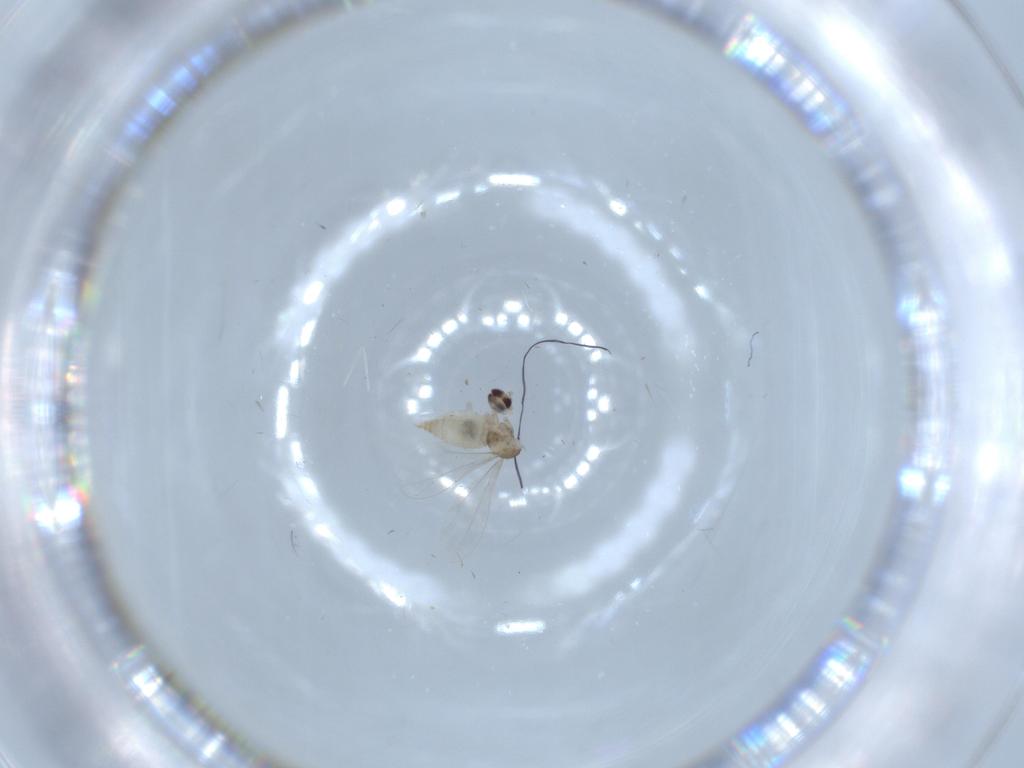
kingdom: Animalia
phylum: Arthropoda
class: Insecta
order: Diptera
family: Cecidomyiidae
